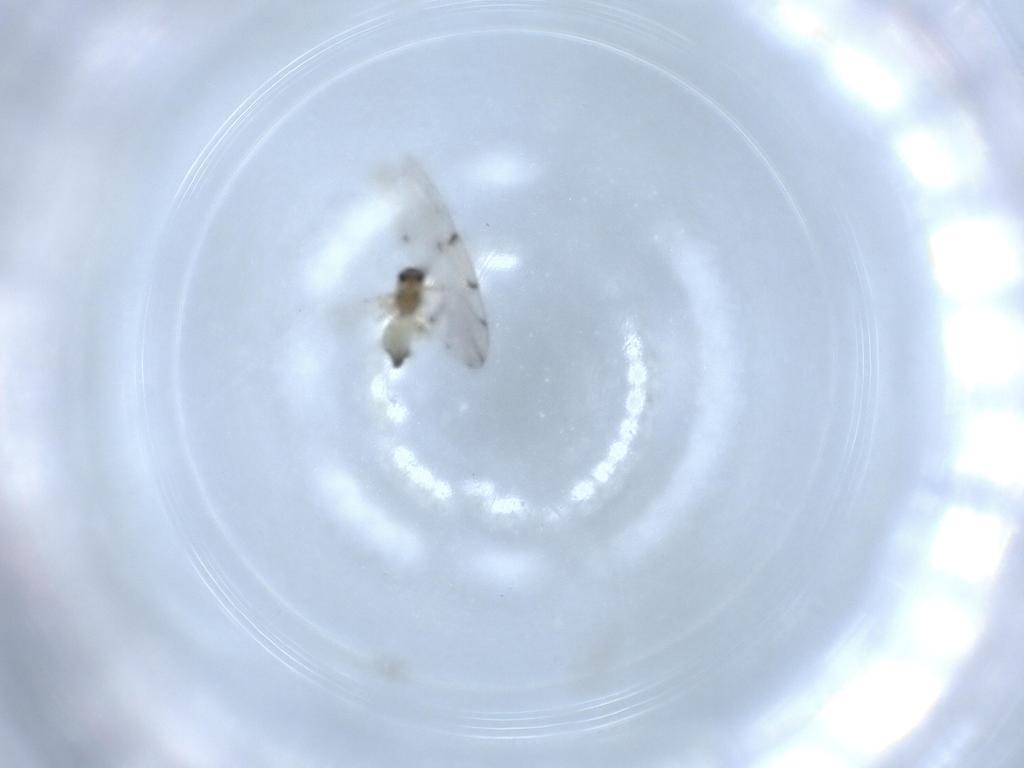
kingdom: Animalia
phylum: Arthropoda
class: Insecta
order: Diptera
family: Chironomidae
